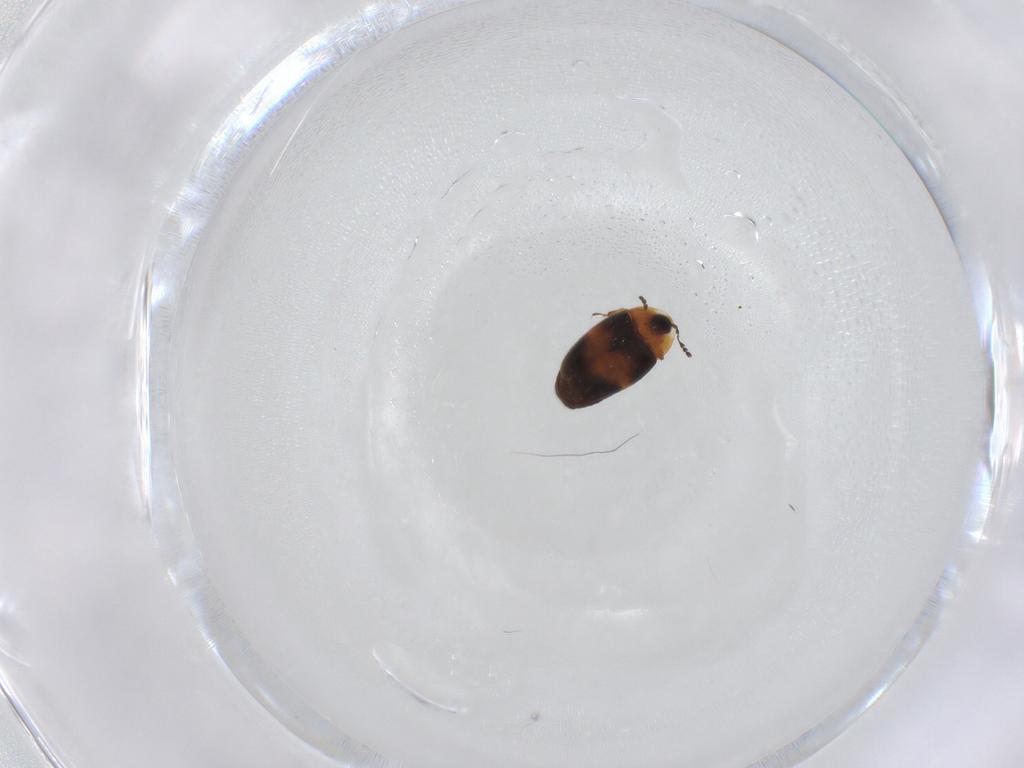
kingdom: Animalia
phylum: Arthropoda
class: Insecta
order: Coleoptera
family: Corylophidae
